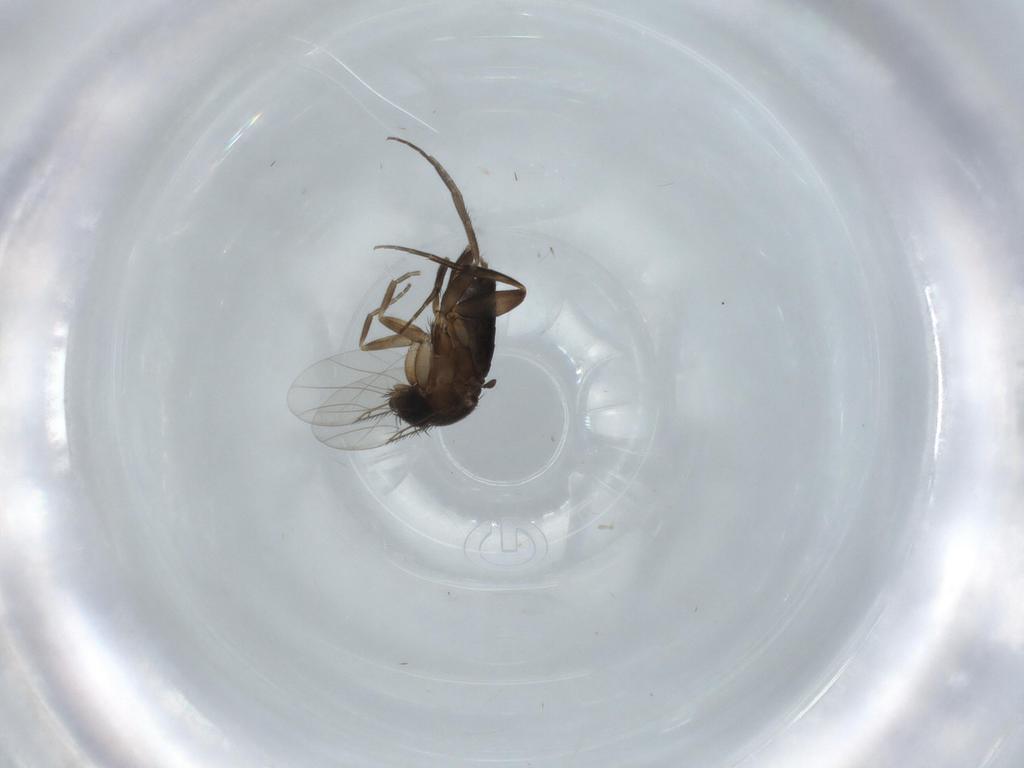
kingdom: Animalia
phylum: Arthropoda
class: Insecta
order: Diptera
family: Phoridae
